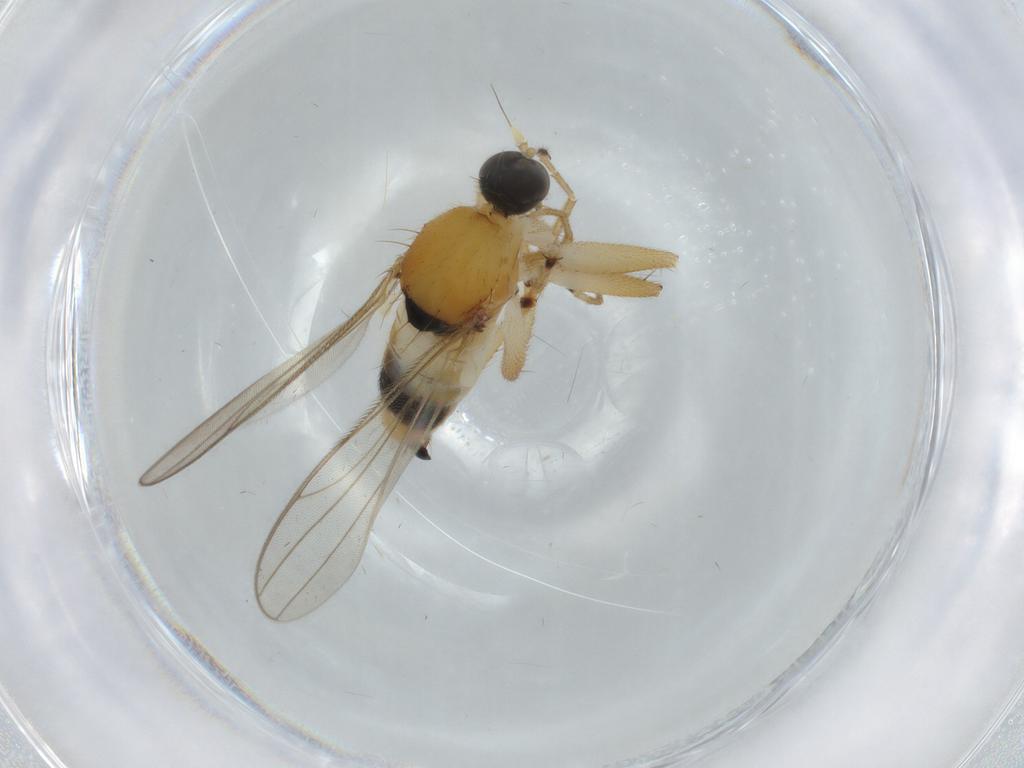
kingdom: Animalia
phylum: Arthropoda
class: Insecta
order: Diptera
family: Hybotidae
